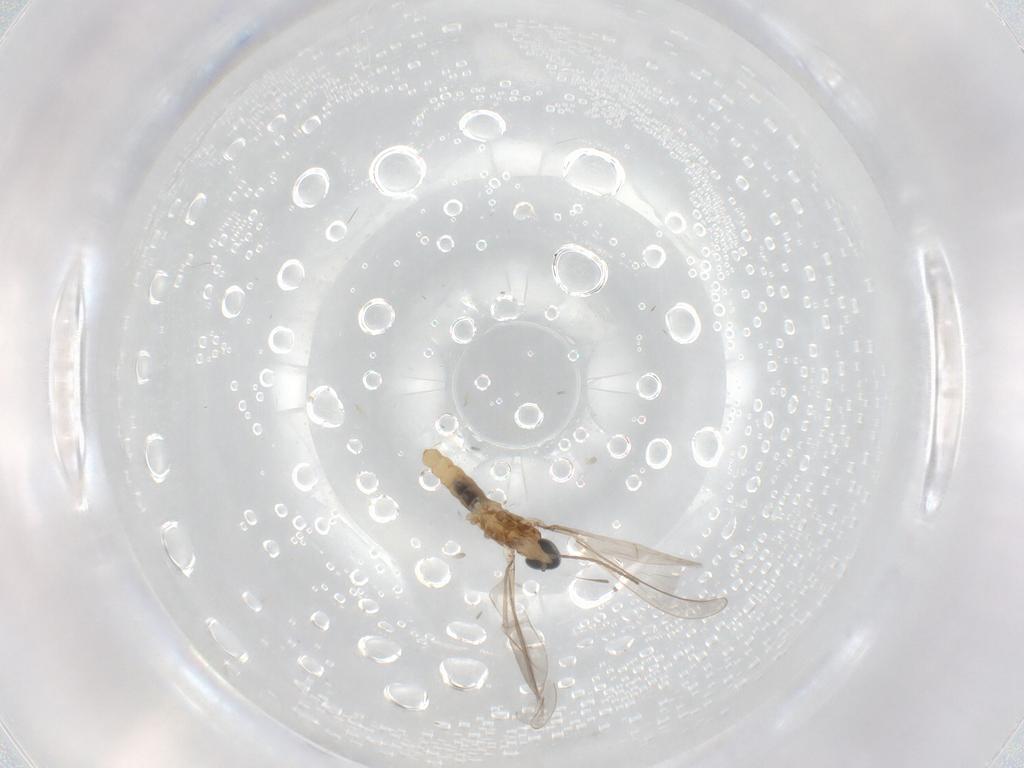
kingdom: Animalia
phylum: Arthropoda
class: Insecta
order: Diptera
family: Cecidomyiidae
